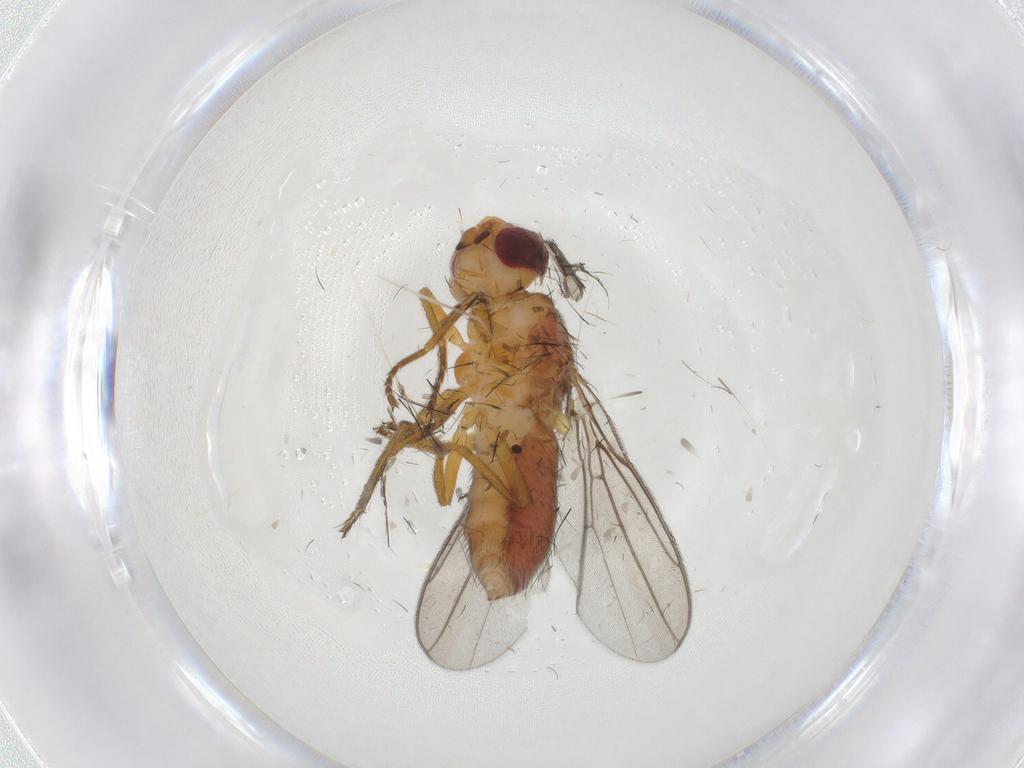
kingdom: Animalia
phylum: Arthropoda
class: Insecta
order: Diptera
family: Chloropidae
